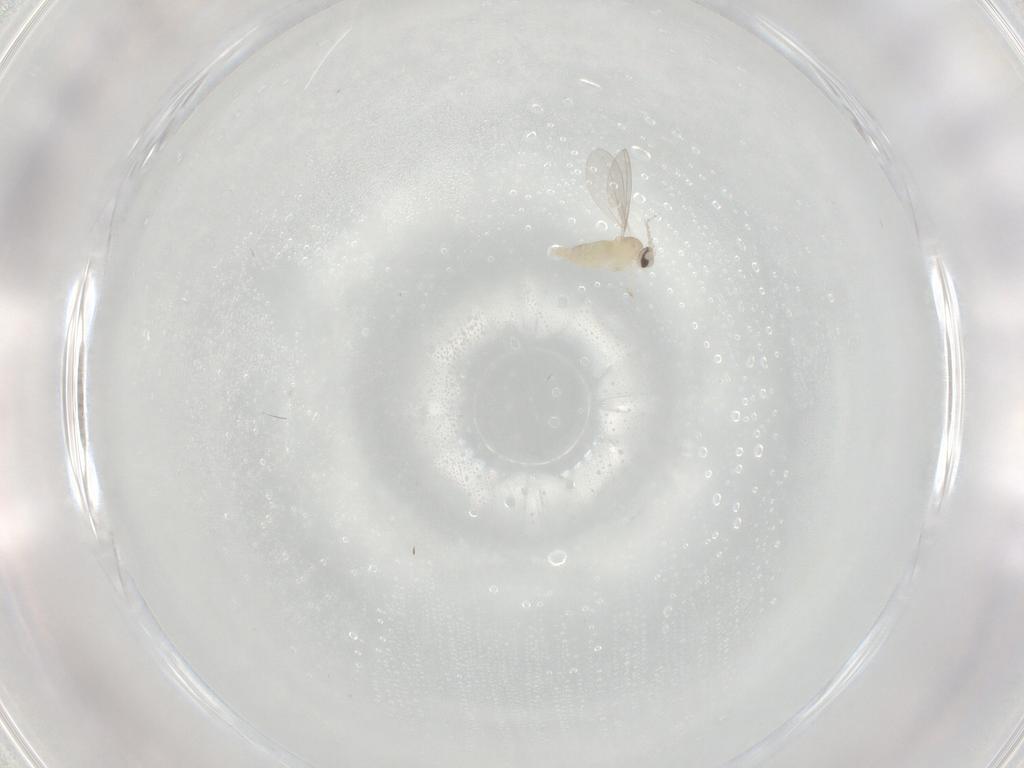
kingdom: Animalia
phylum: Arthropoda
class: Insecta
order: Diptera
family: Cecidomyiidae
